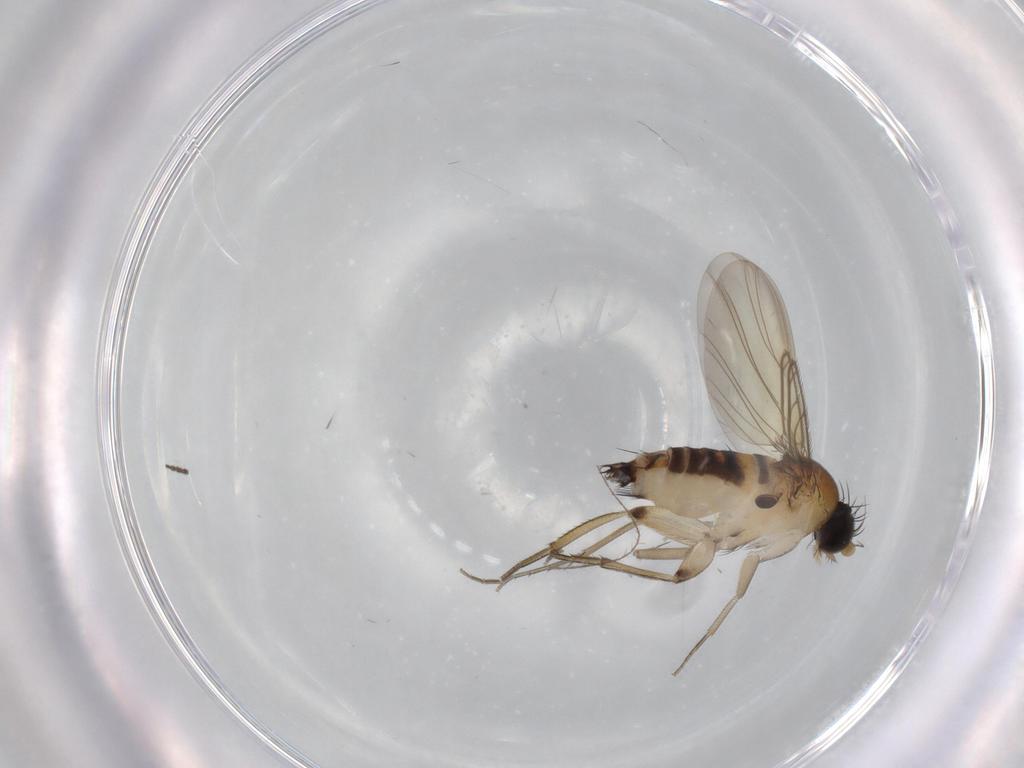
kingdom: Animalia
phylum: Arthropoda
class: Insecta
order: Diptera
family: Phoridae
